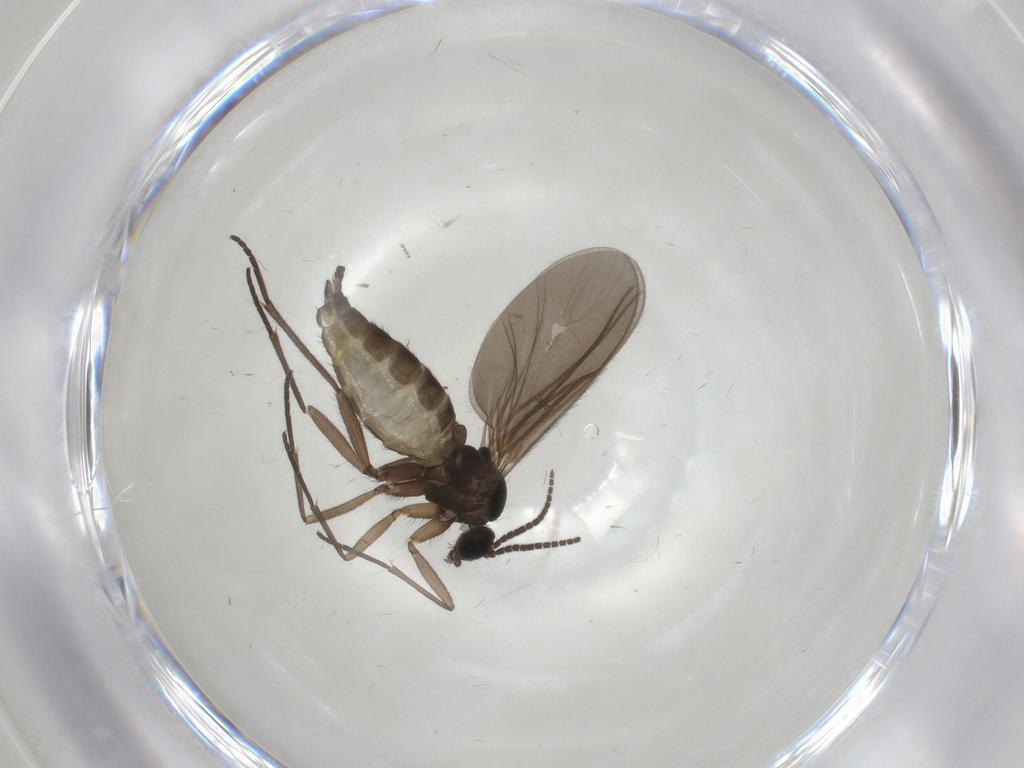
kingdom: Animalia
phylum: Arthropoda
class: Insecta
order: Diptera
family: Sciaridae
